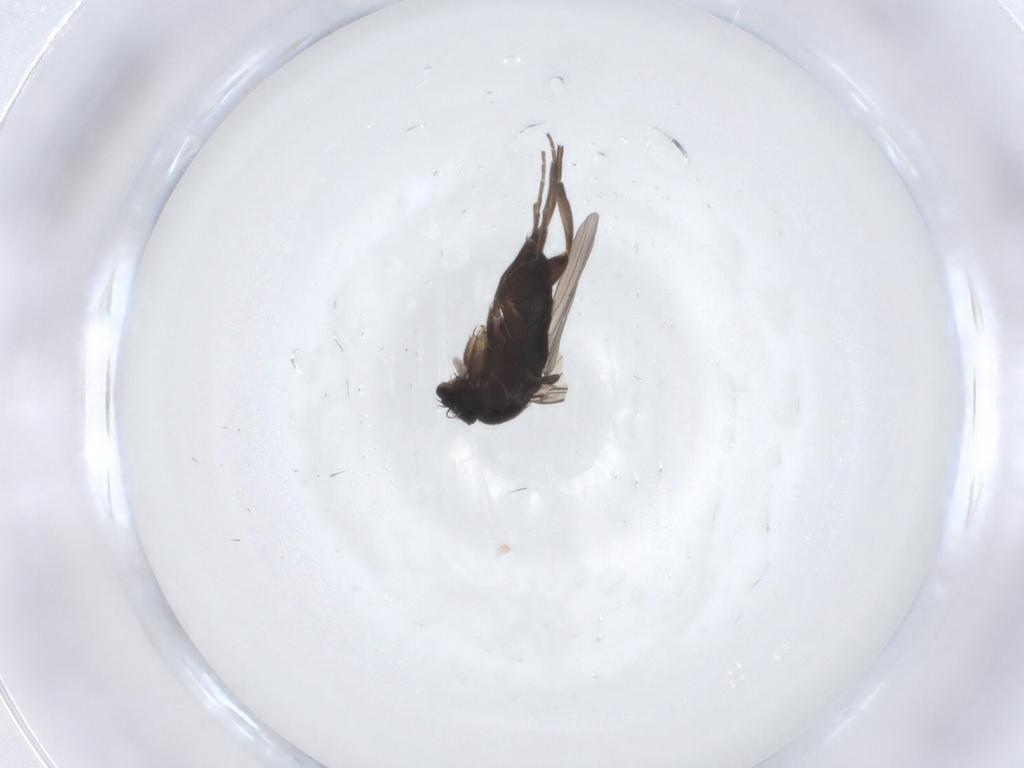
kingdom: Animalia
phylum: Arthropoda
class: Insecta
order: Diptera
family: Phoridae
